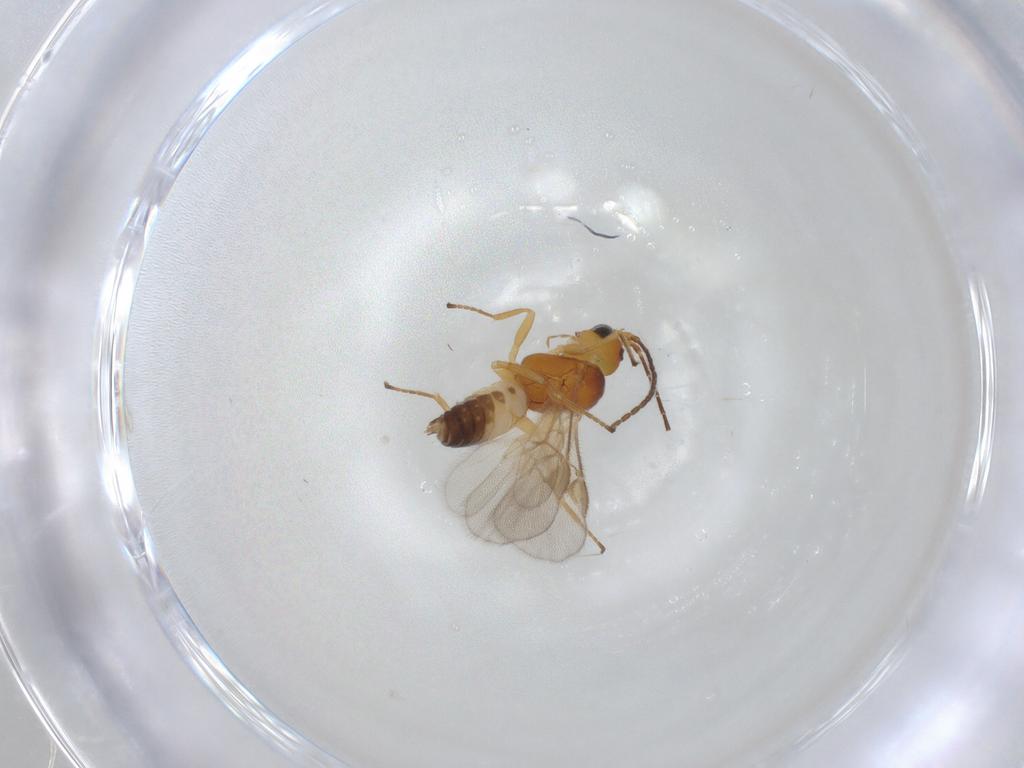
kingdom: Animalia
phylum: Arthropoda
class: Insecta
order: Hymenoptera
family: Braconidae
